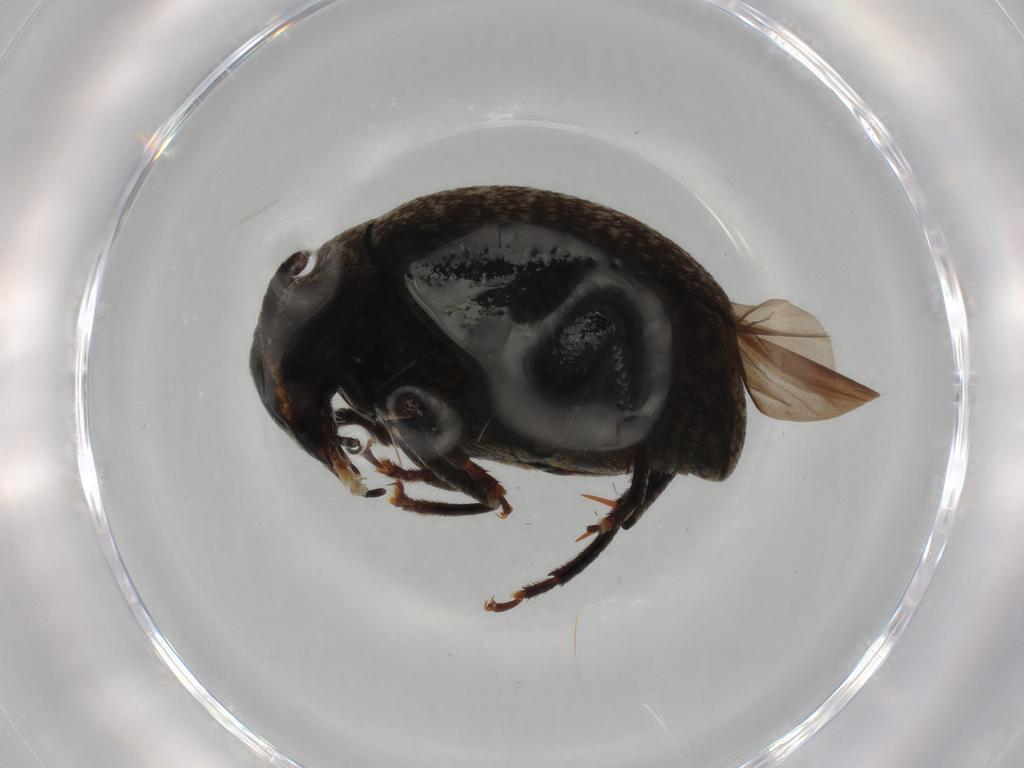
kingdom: Animalia
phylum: Arthropoda
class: Insecta
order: Coleoptera
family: Chrysomelidae
